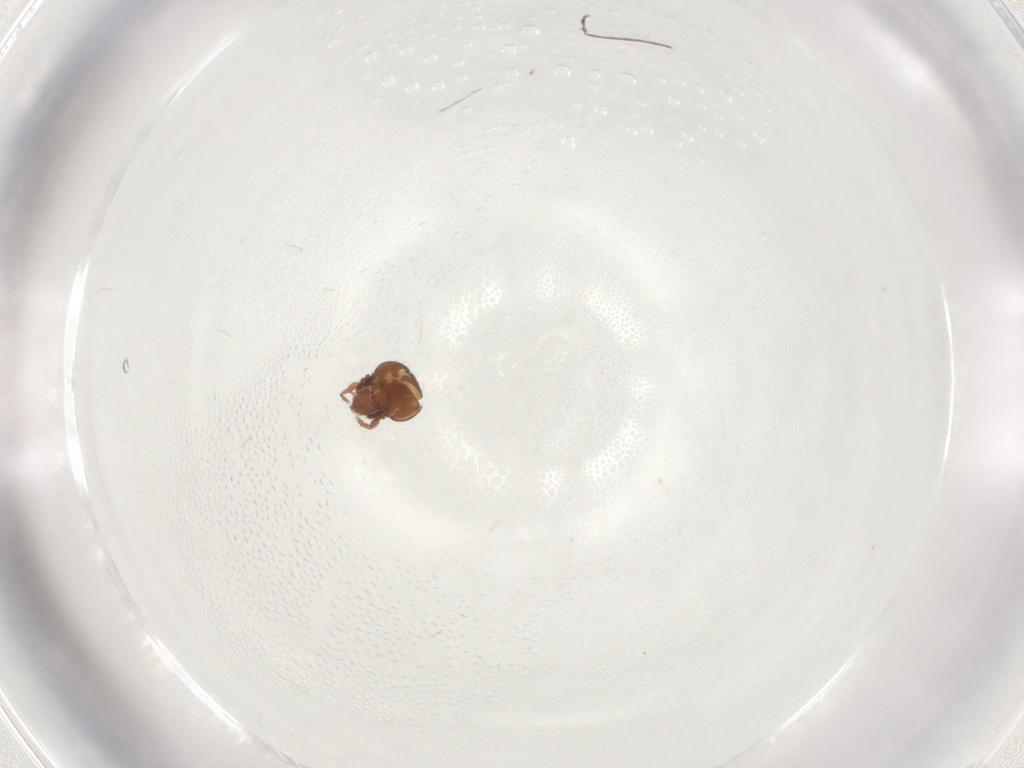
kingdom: Animalia
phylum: Arthropoda
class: Arachnida
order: Sarcoptiformes
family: Oribatulidae
